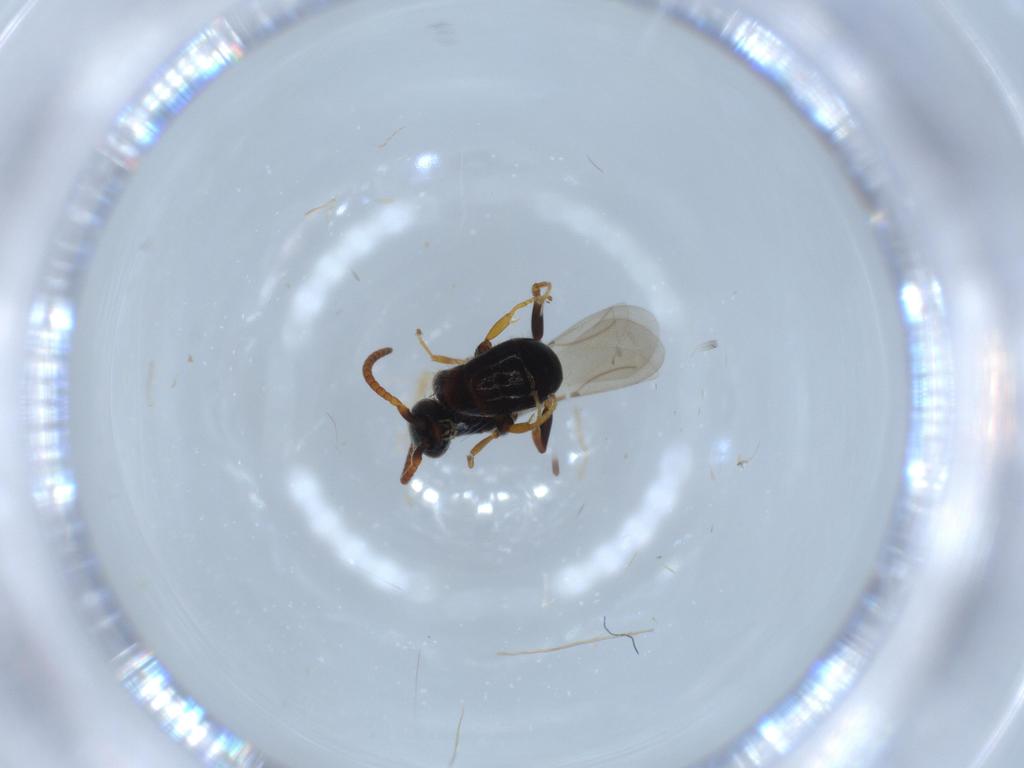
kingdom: Animalia
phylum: Arthropoda
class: Insecta
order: Hymenoptera
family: Bethylidae
